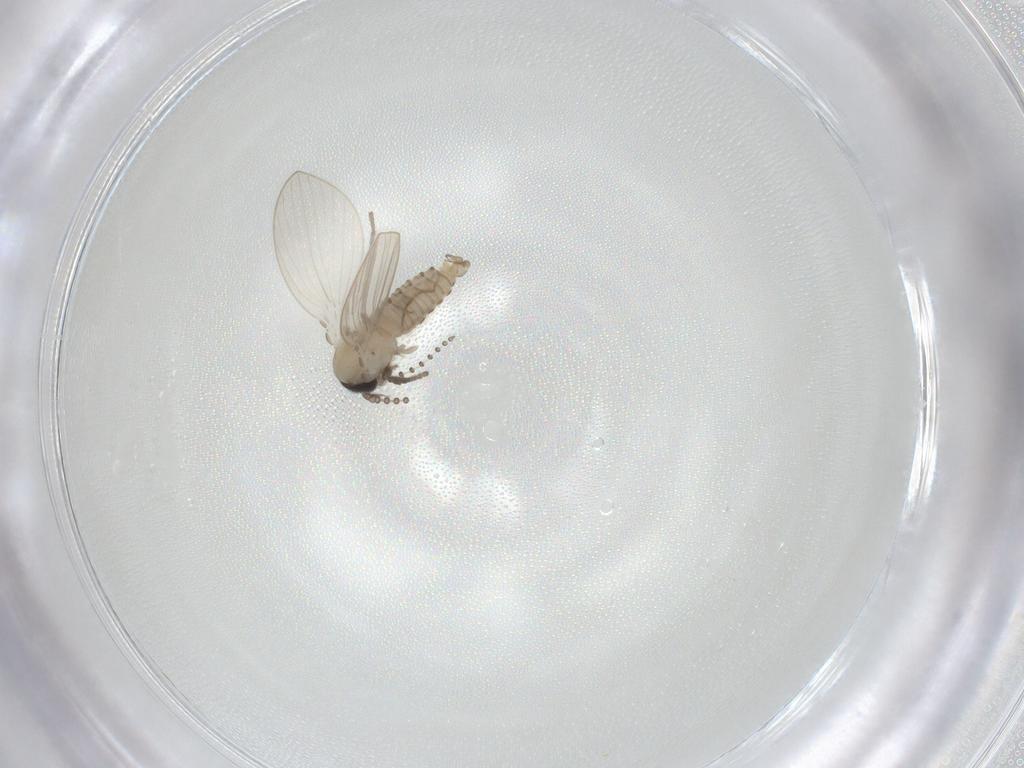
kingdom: Animalia
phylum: Arthropoda
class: Insecta
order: Diptera
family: Psychodidae
